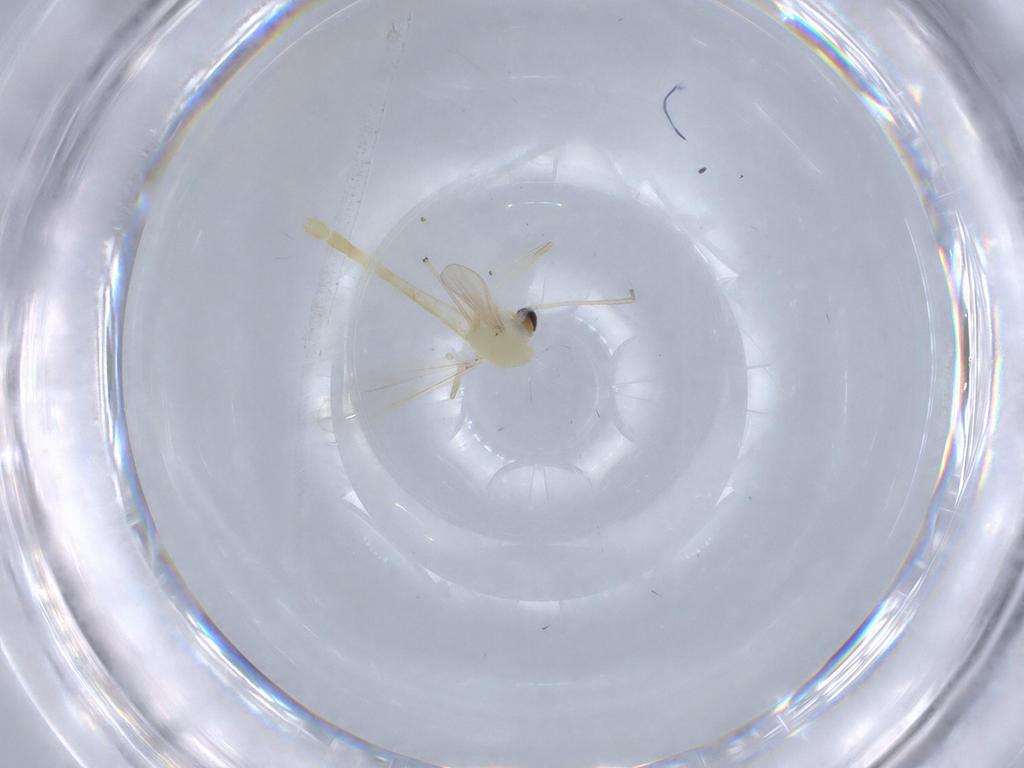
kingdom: Animalia
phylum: Arthropoda
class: Insecta
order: Diptera
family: Chironomidae
